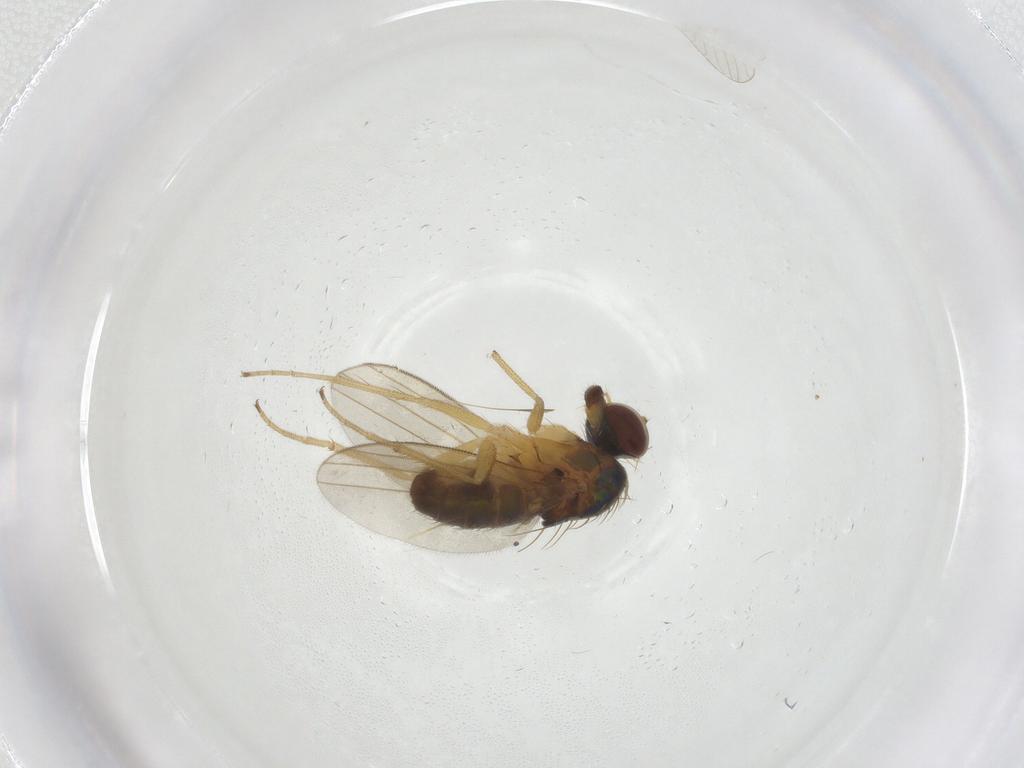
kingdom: Animalia
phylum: Arthropoda
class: Insecta
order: Diptera
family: Dolichopodidae
